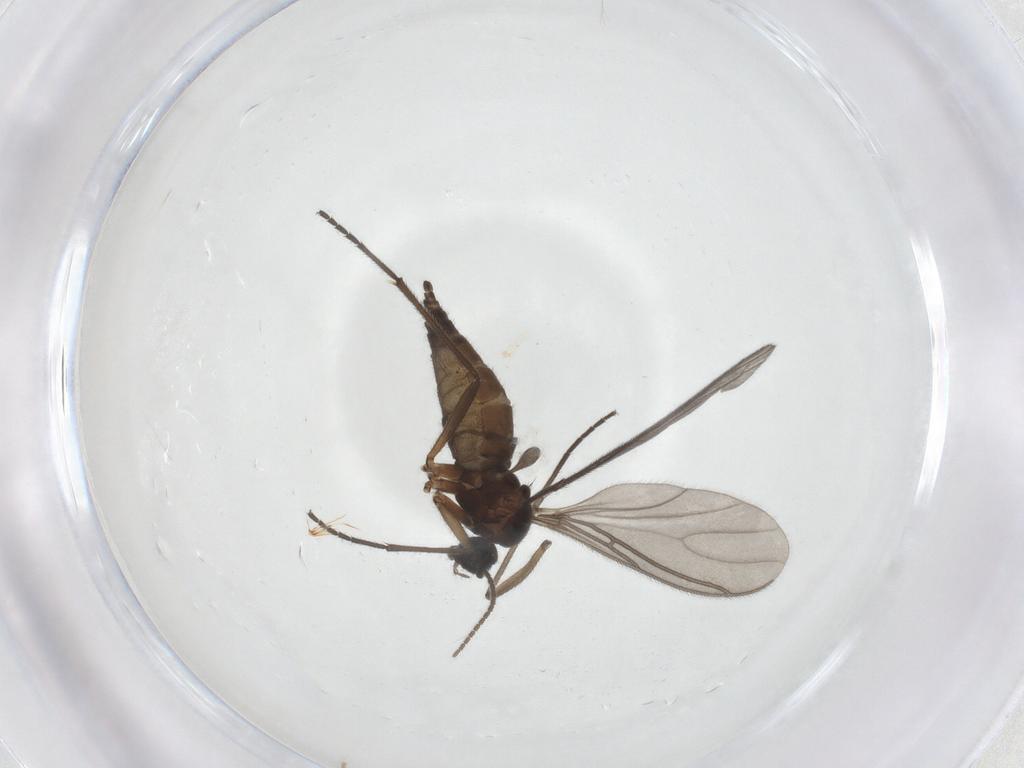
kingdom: Animalia
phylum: Arthropoda
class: Insecta
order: Diptera
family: Sciaridae
